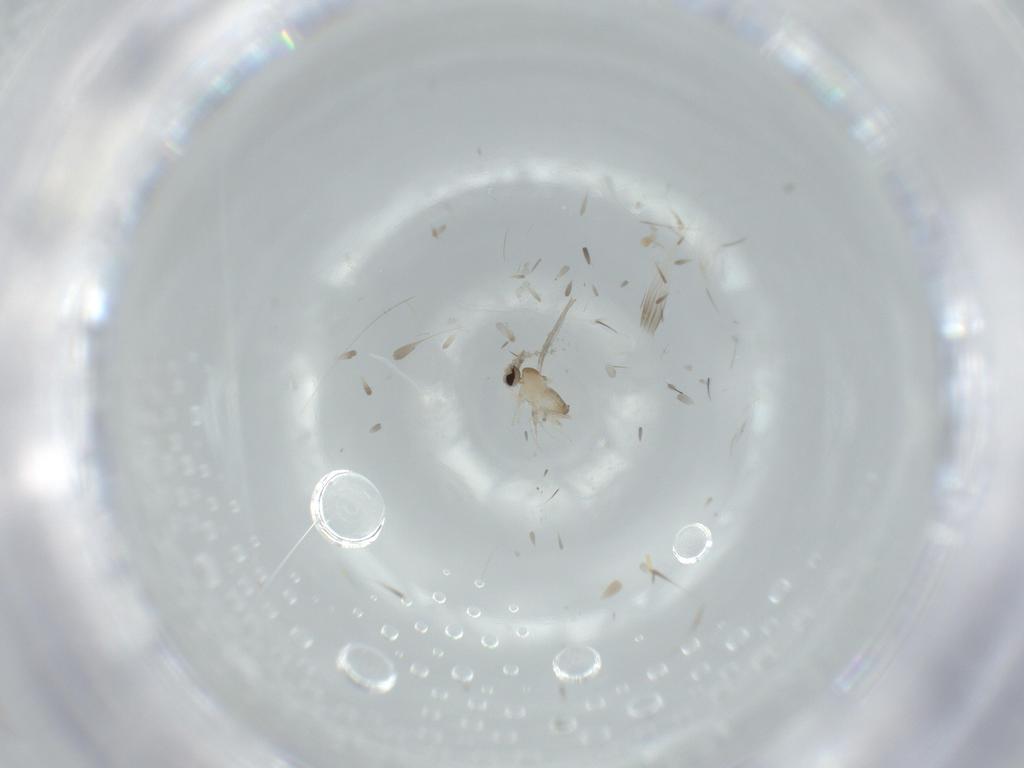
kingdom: Animalia
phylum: Arthropoda
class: Insecta
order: Diptera
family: Cecidomyiidae
